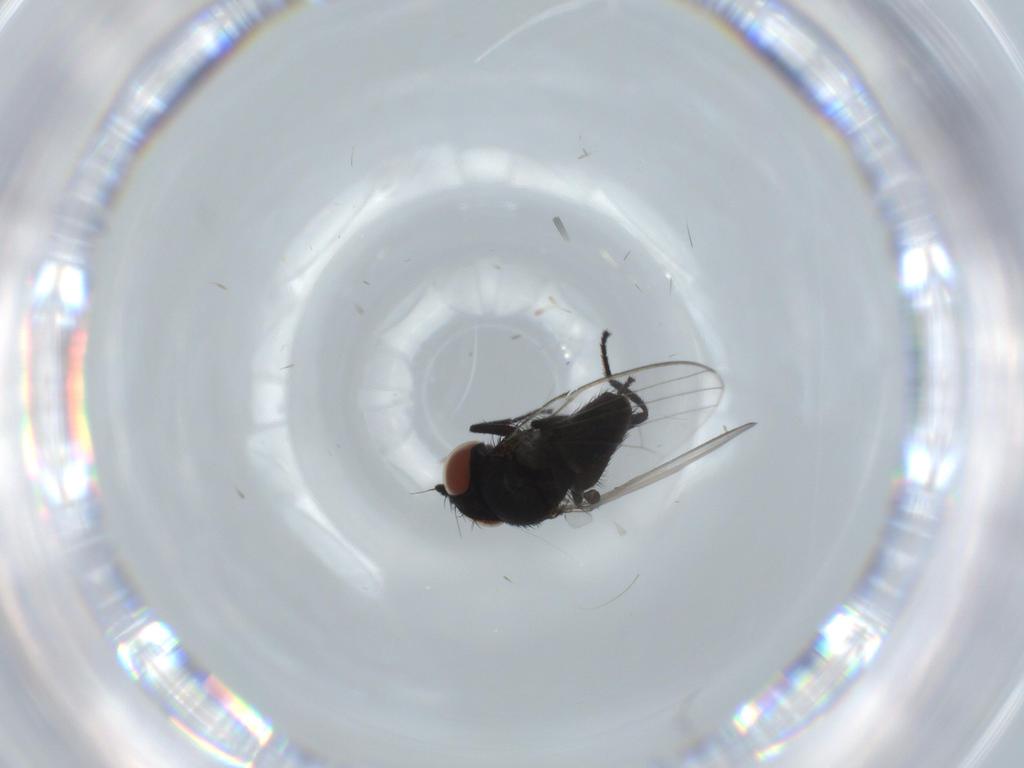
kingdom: Animalia
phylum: Arthropoda
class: Insecta
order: Diptera
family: Milichiidae
